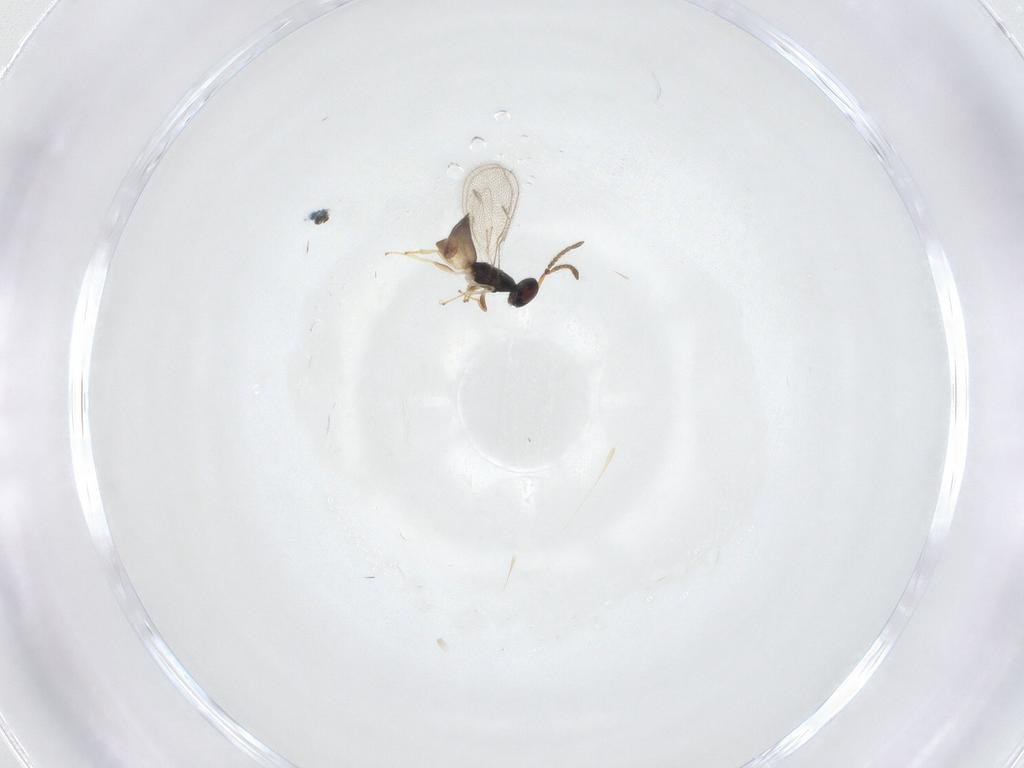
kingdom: Animalia
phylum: Arthropoda
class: Insecta
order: Hymenoptera
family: Pteromalidae
